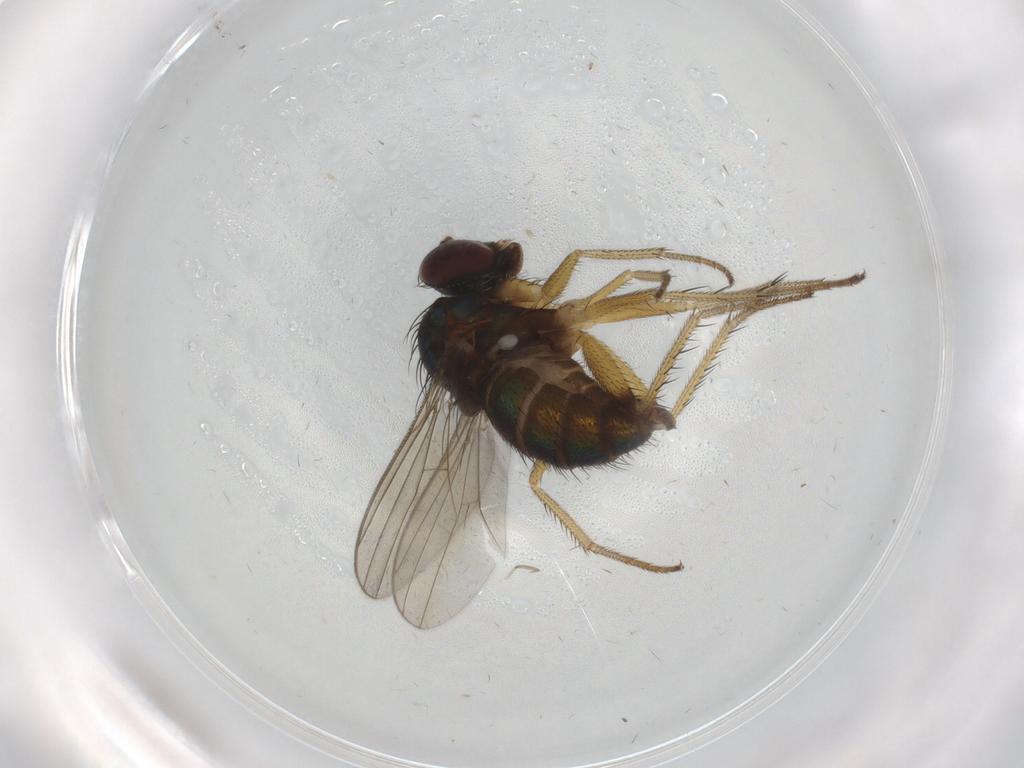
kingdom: Animalia
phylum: Arthropoda
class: Insecta
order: Diptera
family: Dolichopodidae
